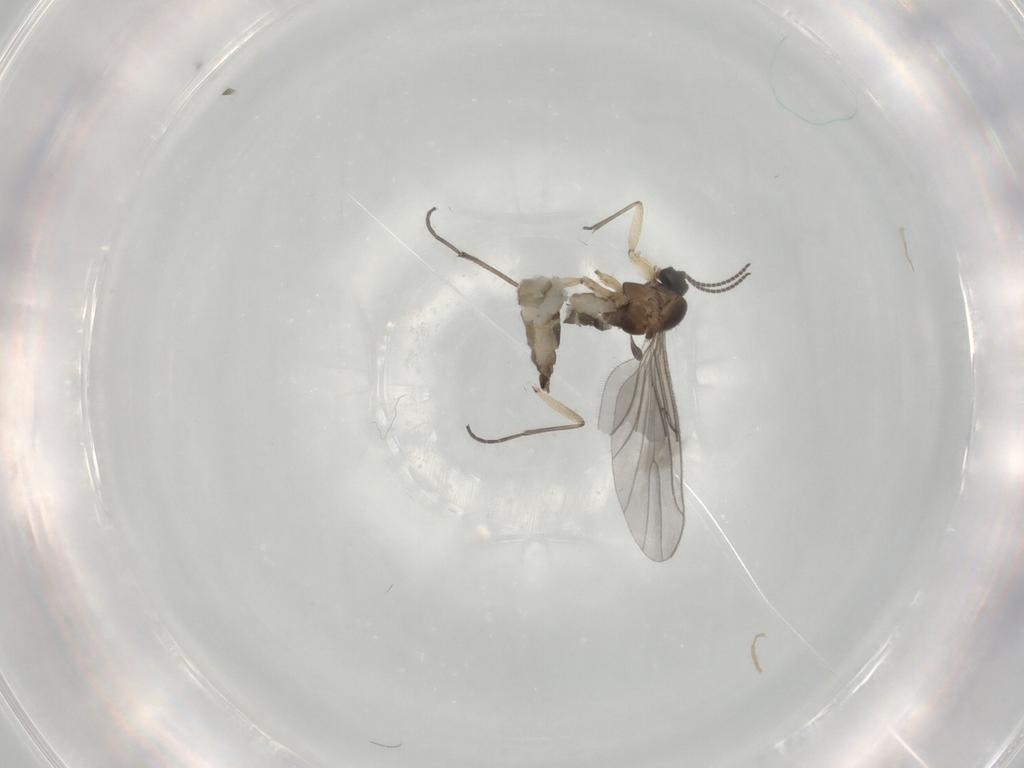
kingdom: Animalia
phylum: Arthropoda
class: Insecta
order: Diptera
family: Sciaridae
